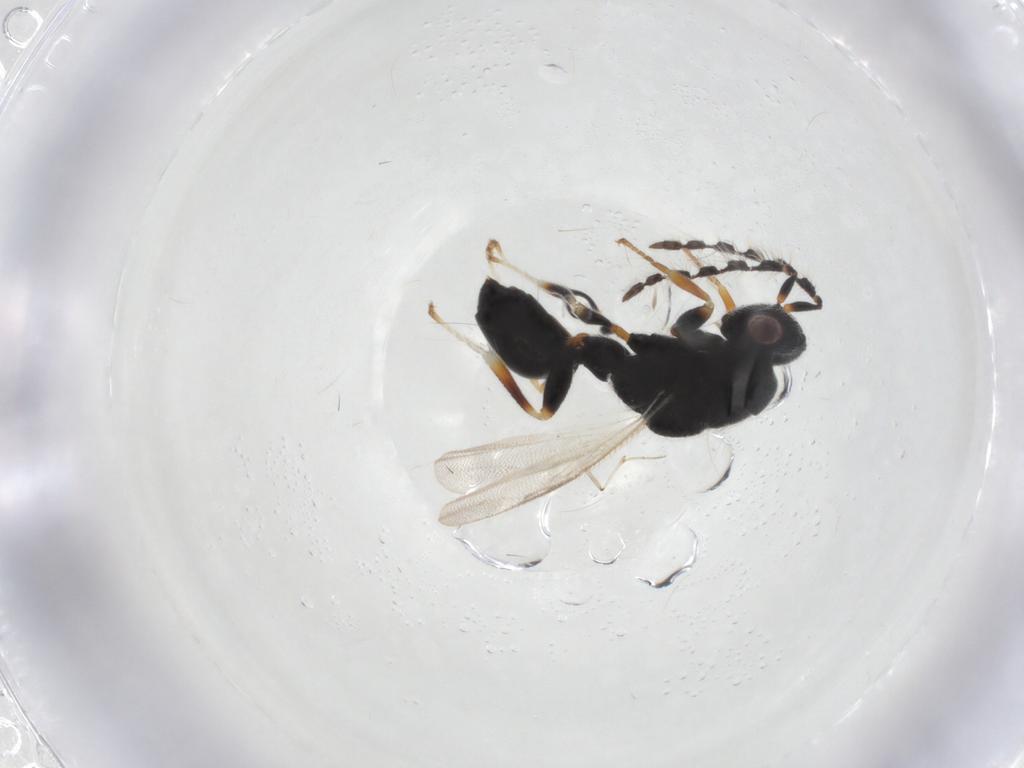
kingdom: Animalia
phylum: Arthropoda
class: Insecta
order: Hymenoptera
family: Eurytomidae
